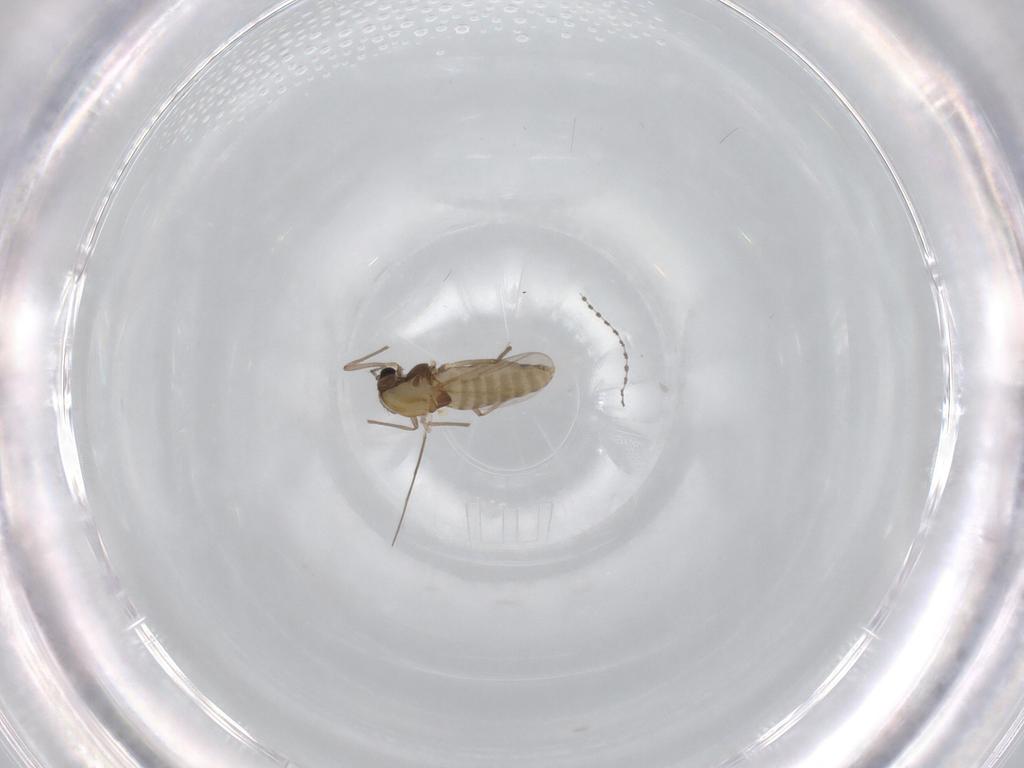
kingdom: Animalia
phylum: Arthropoda
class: Insecta
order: Diptera
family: Chironomidae
